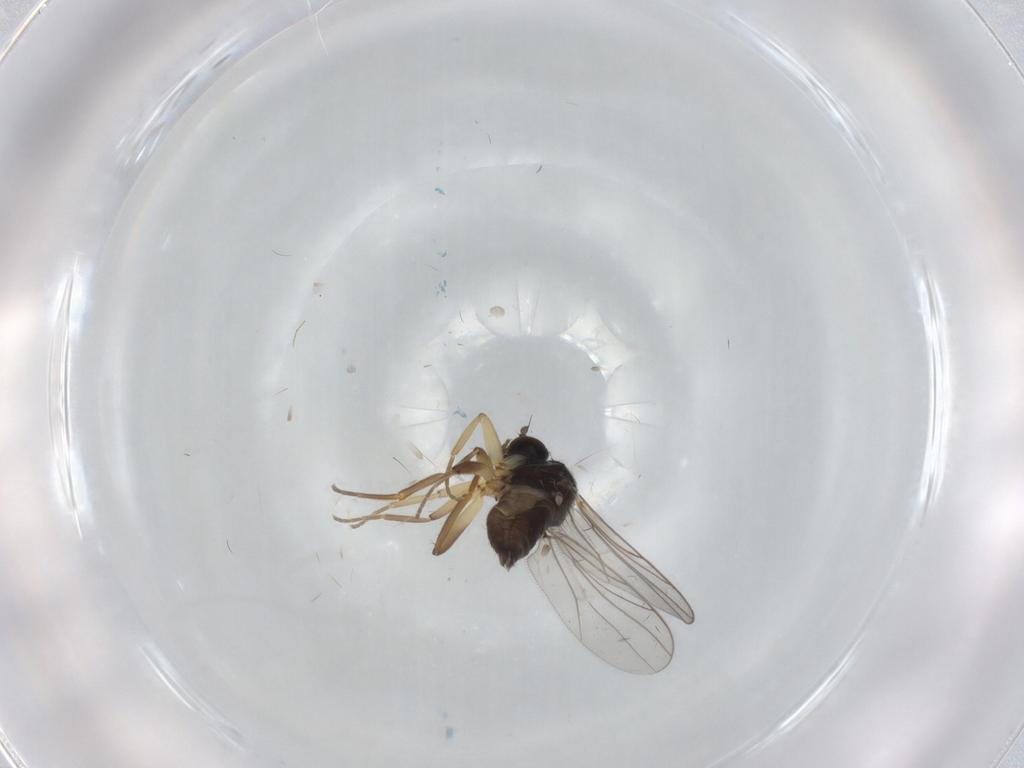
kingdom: Animalia
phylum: Arthropoda
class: Insecta
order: Diptera
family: Hybotidae
